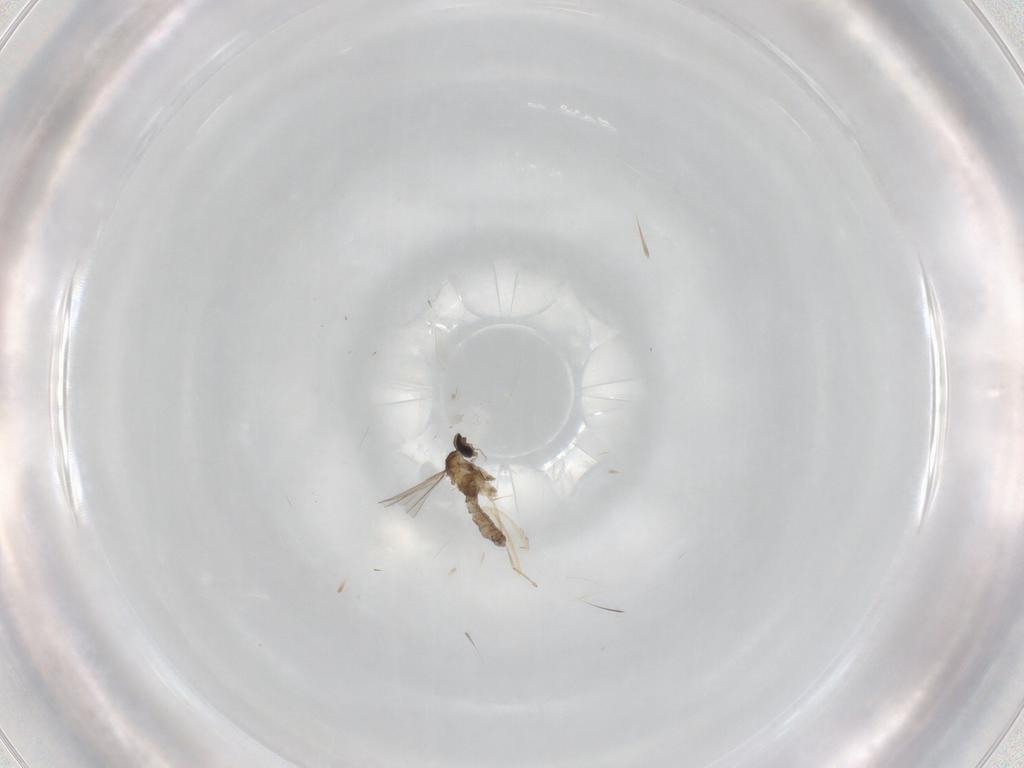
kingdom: Animalia
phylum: Arthropoda
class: Insecta
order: Diptera
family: Cecidomyiidae
